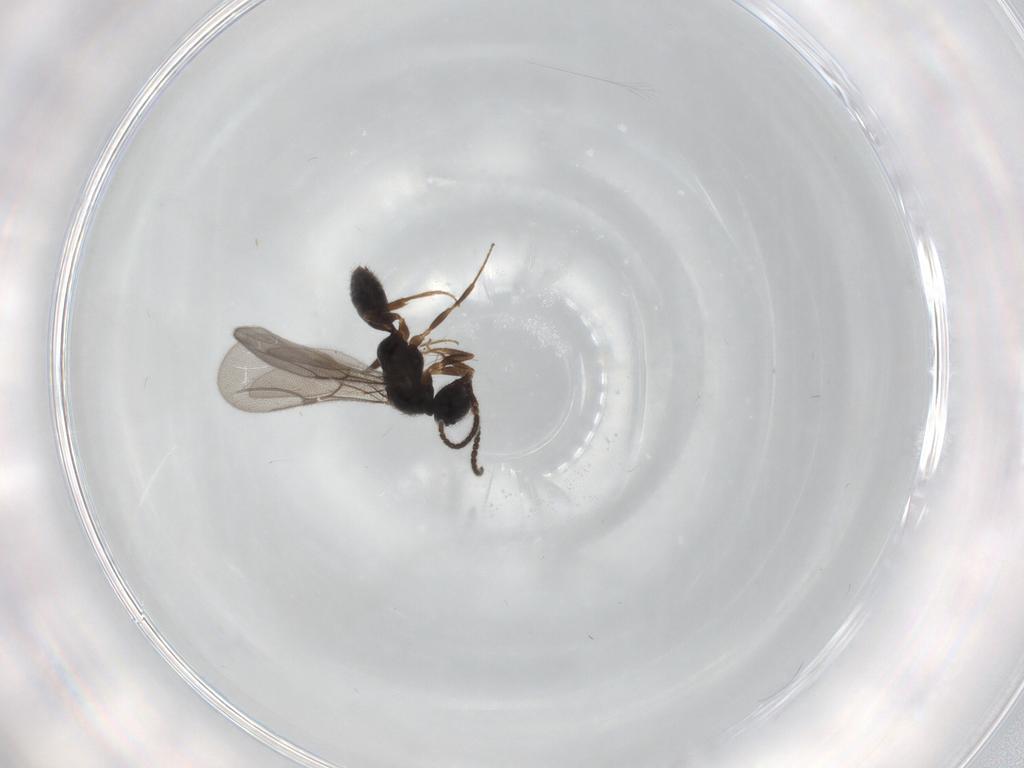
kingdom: Animalia
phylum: Arthropoda
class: Insecta
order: Hymenoptera
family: Bethylidae
